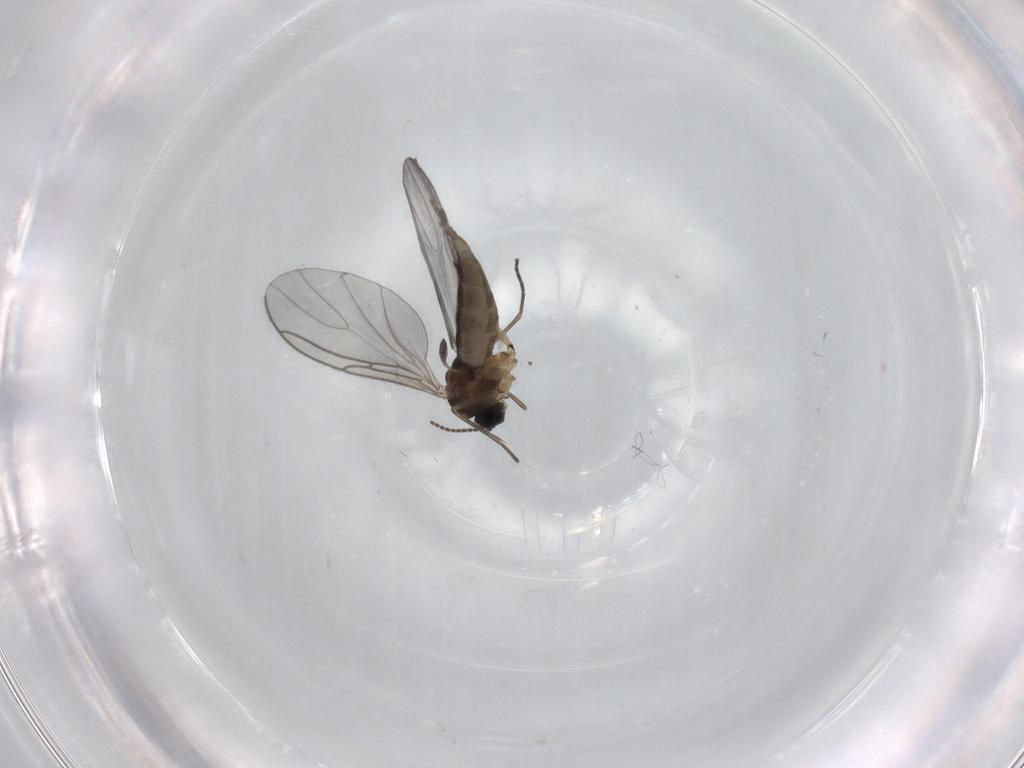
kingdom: Animalia
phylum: Arthropoda
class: Insecta
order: Diptera
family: Sciaridae
